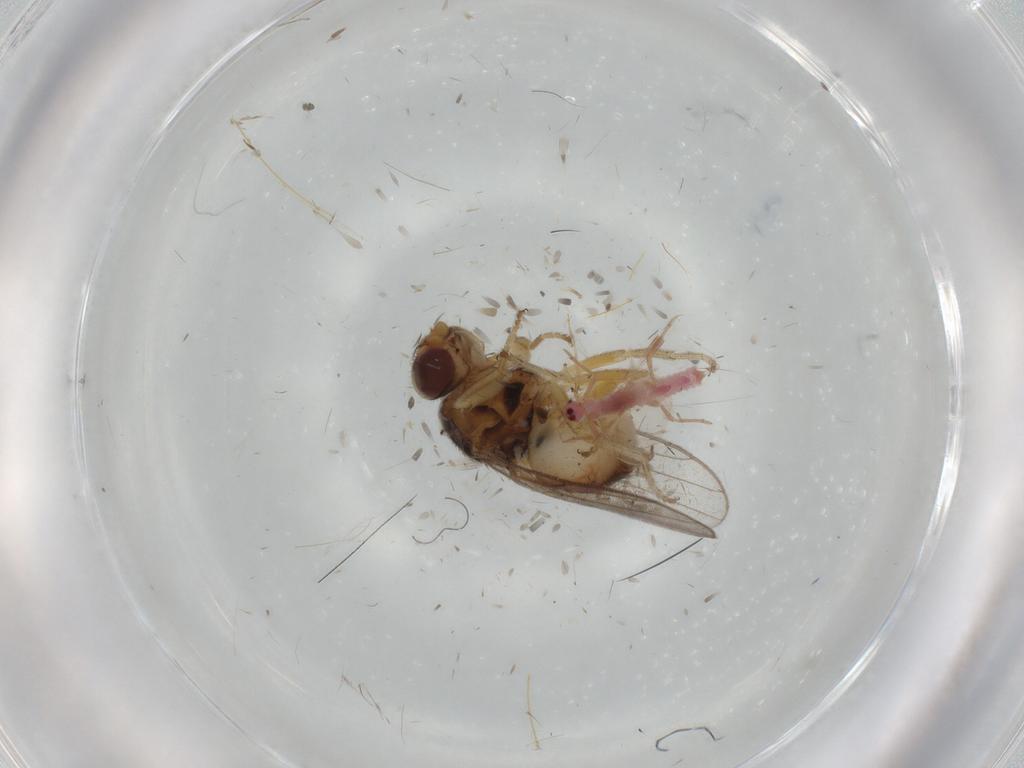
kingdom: Animalia
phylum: Arthropoda
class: Insecta
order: Diptera
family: Chloropidae
